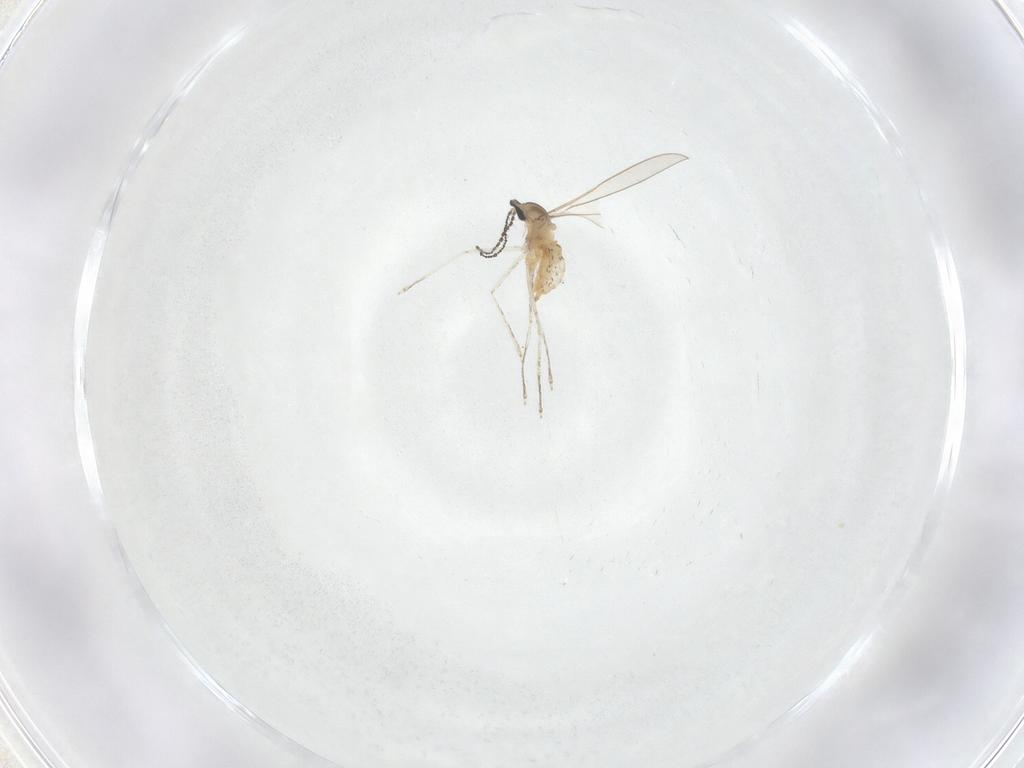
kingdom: Animalia
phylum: Arthropoda
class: Insecta
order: Diptera
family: Cecidomyiidae
